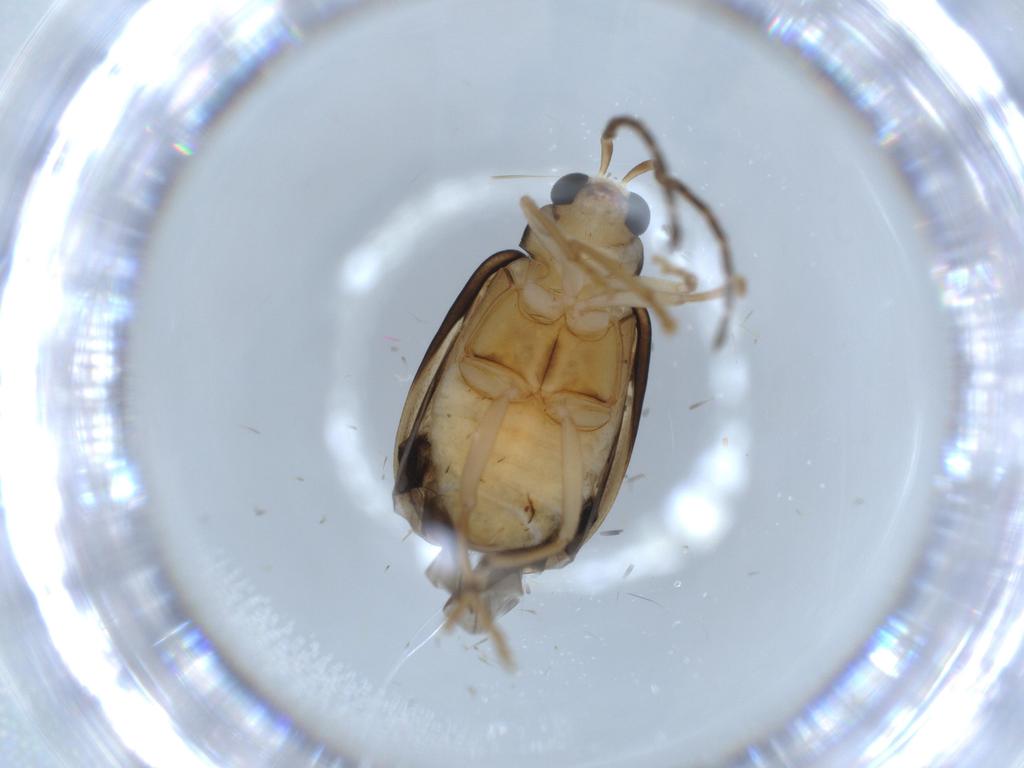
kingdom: Animalia
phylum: Arthropoda
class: Insecta
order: Coleoptera
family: Chrysomelidae
